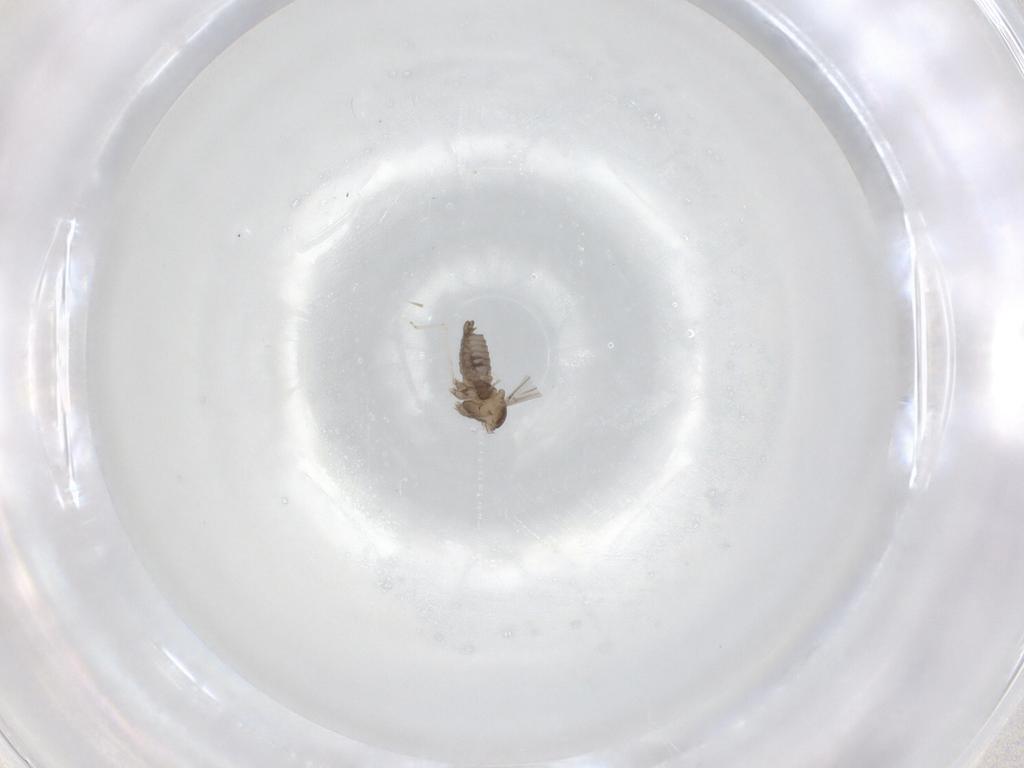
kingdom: Animalia
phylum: Arthropoda
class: Insecta
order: Diptera
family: Cecidomyiidae
